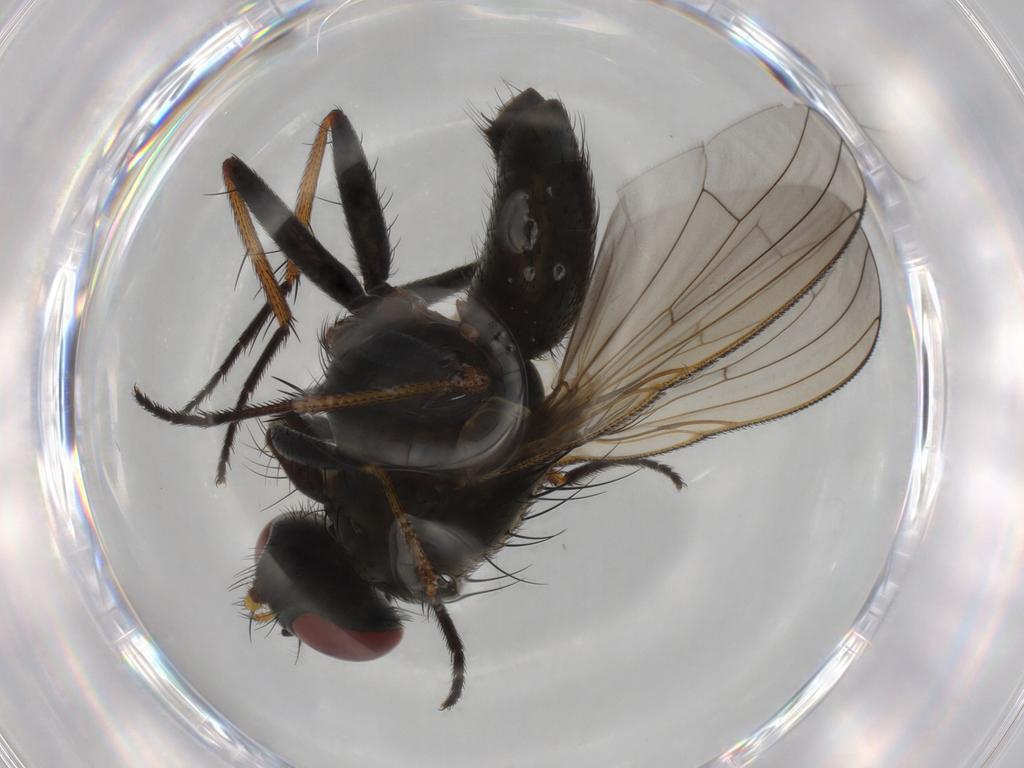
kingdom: Animalia
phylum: Arthropoda
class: Insecta
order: Diptera
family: Muscidae
